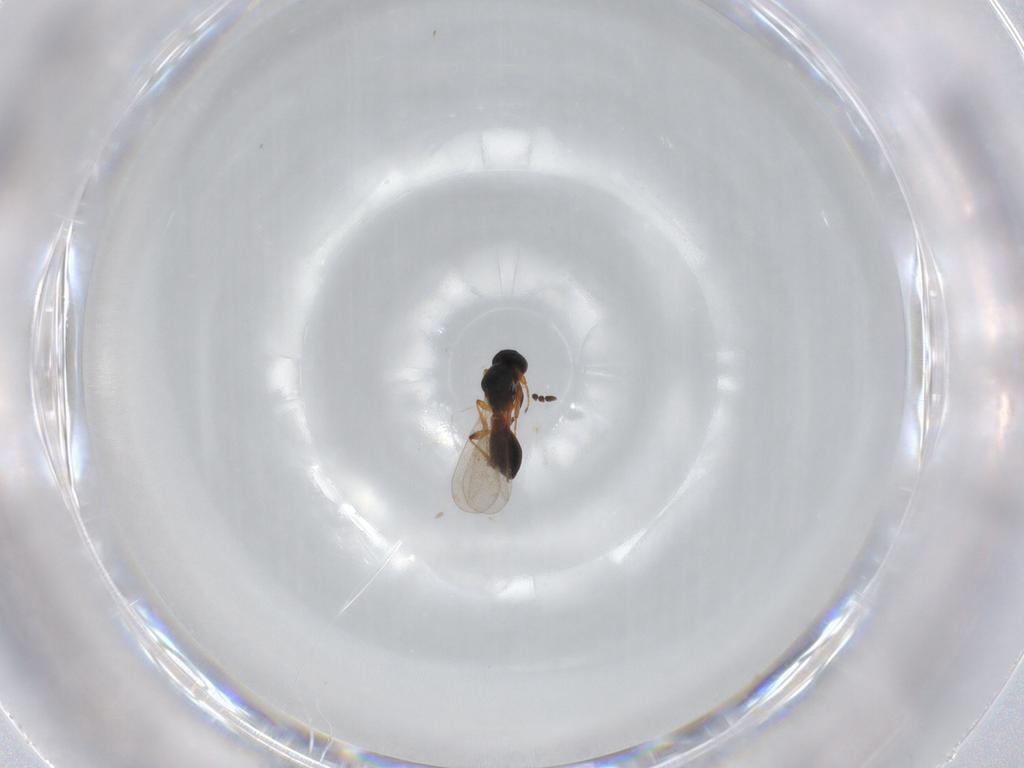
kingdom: Animalia
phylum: Arthropoda
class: Insecta
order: Hymenoptera
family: Platygastridae
